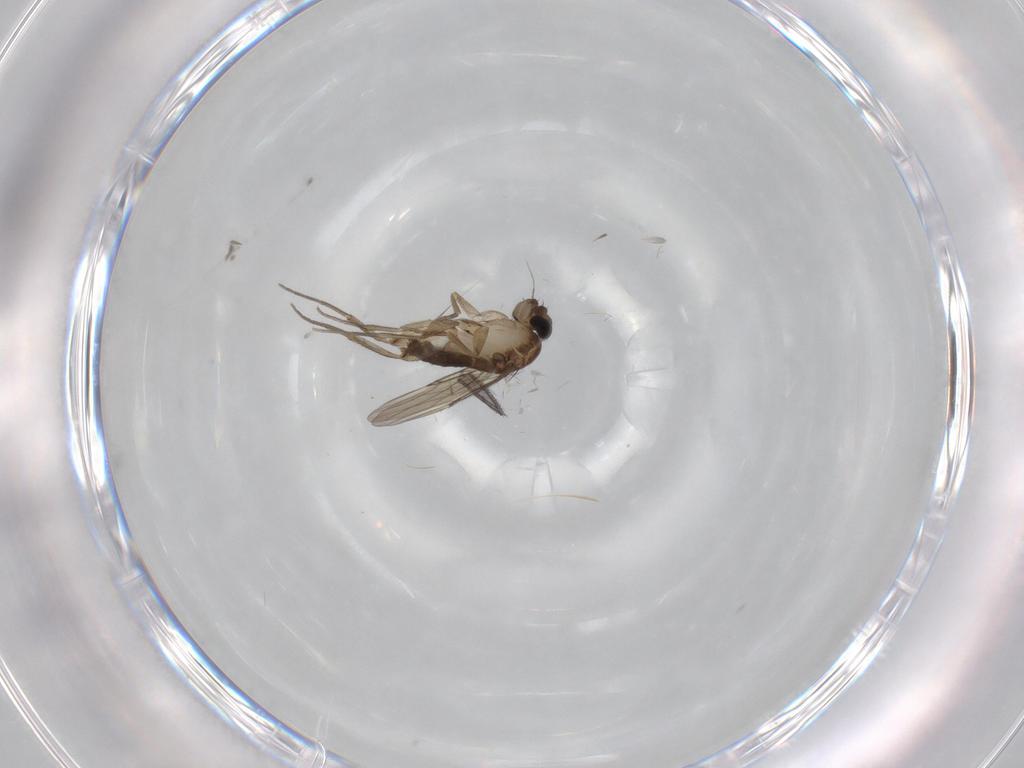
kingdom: Animalia
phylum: Arthropoda
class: Insecta
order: Diptera
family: Phoridae
